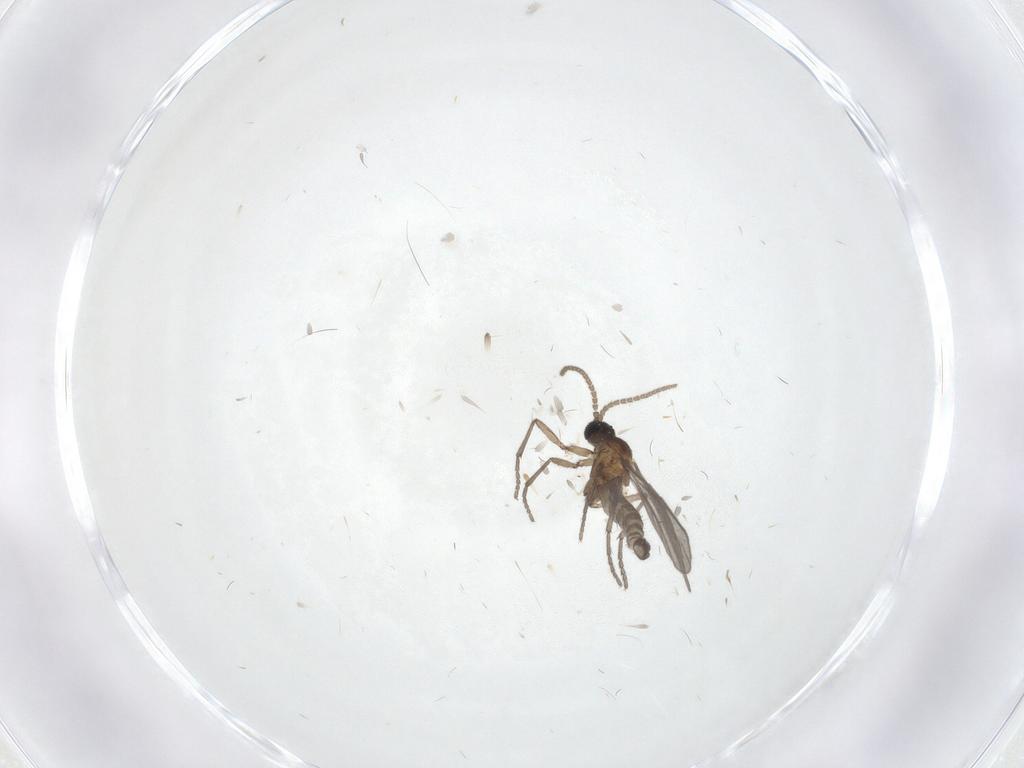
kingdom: Animalia
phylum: Arthropoda
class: Insecta
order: Diptera
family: Sciaridae
